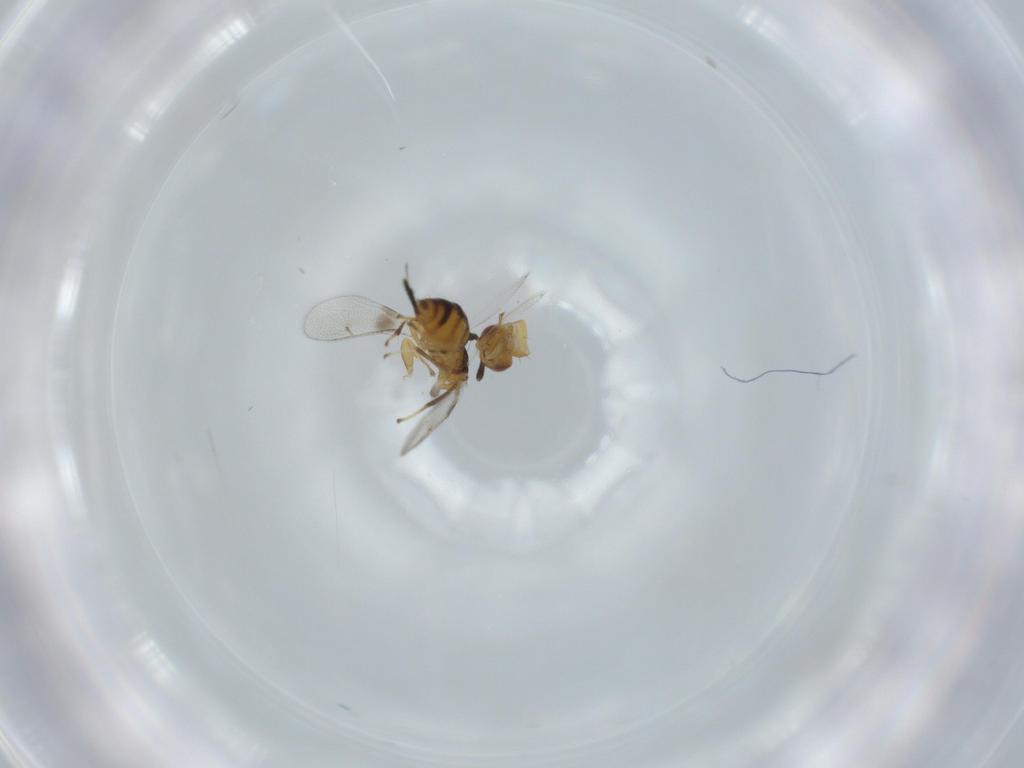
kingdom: Animalia
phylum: Arthropoda
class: Insecta
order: Hymenoptera
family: Torymidae
